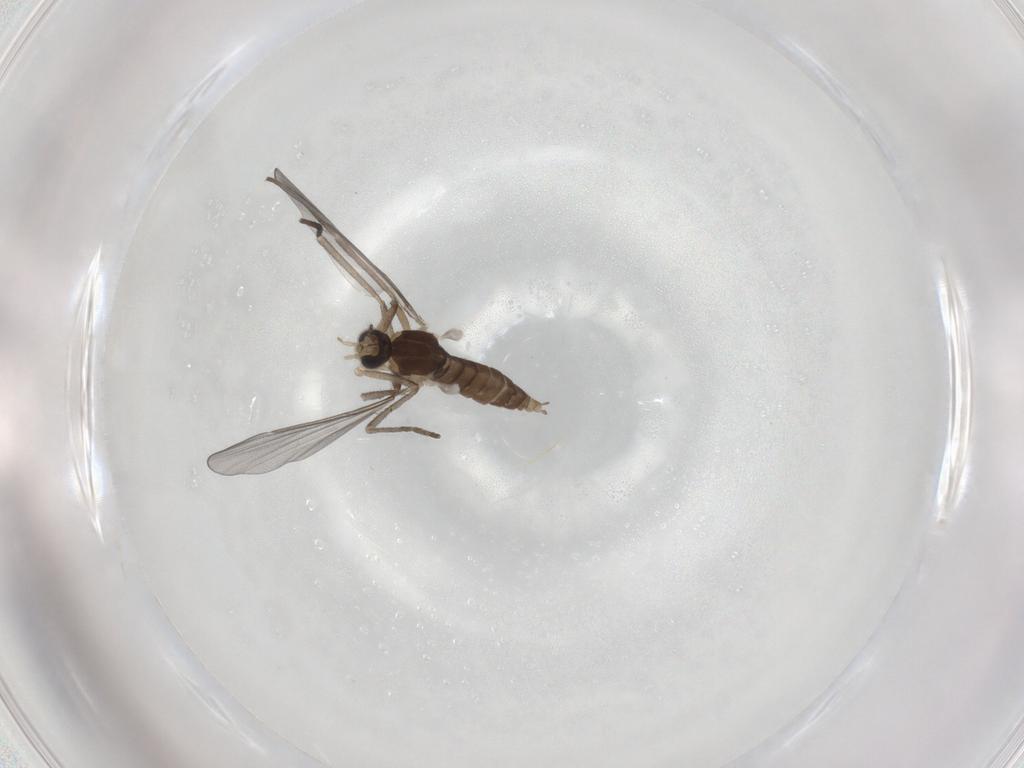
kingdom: Animalia
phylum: Arthropoda
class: Insecta
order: Diptera
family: Cecidomyiidae
